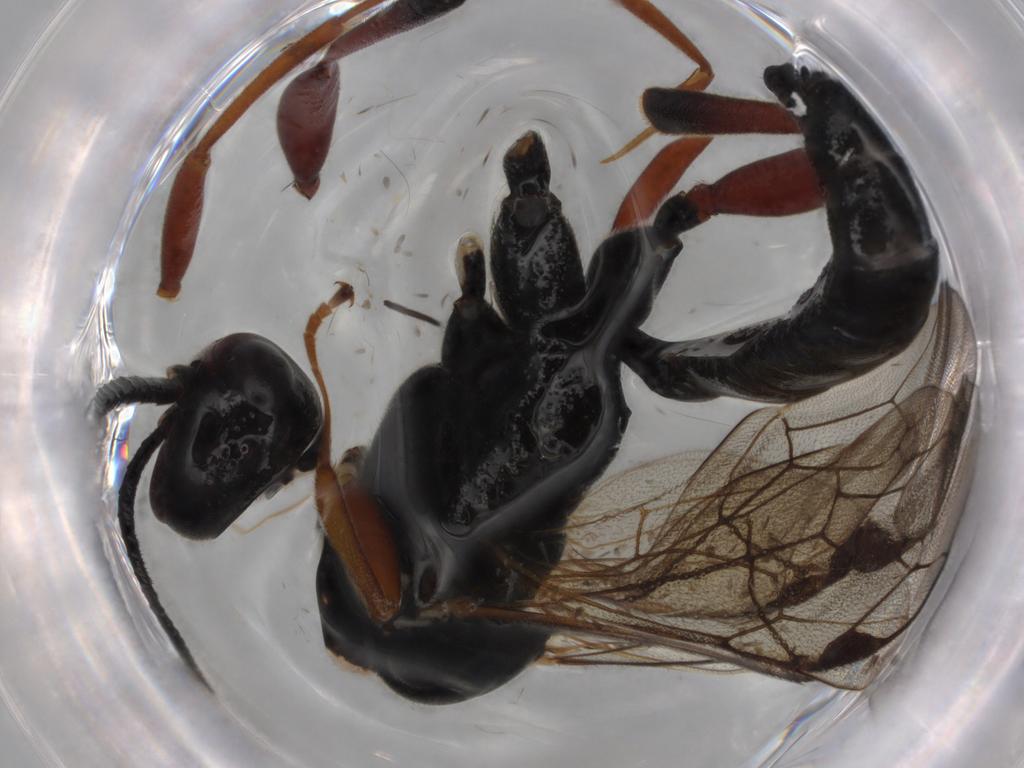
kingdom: Animalia
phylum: Arthropoda
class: Insecta
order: Hymenoptera
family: Ichneumonidae
